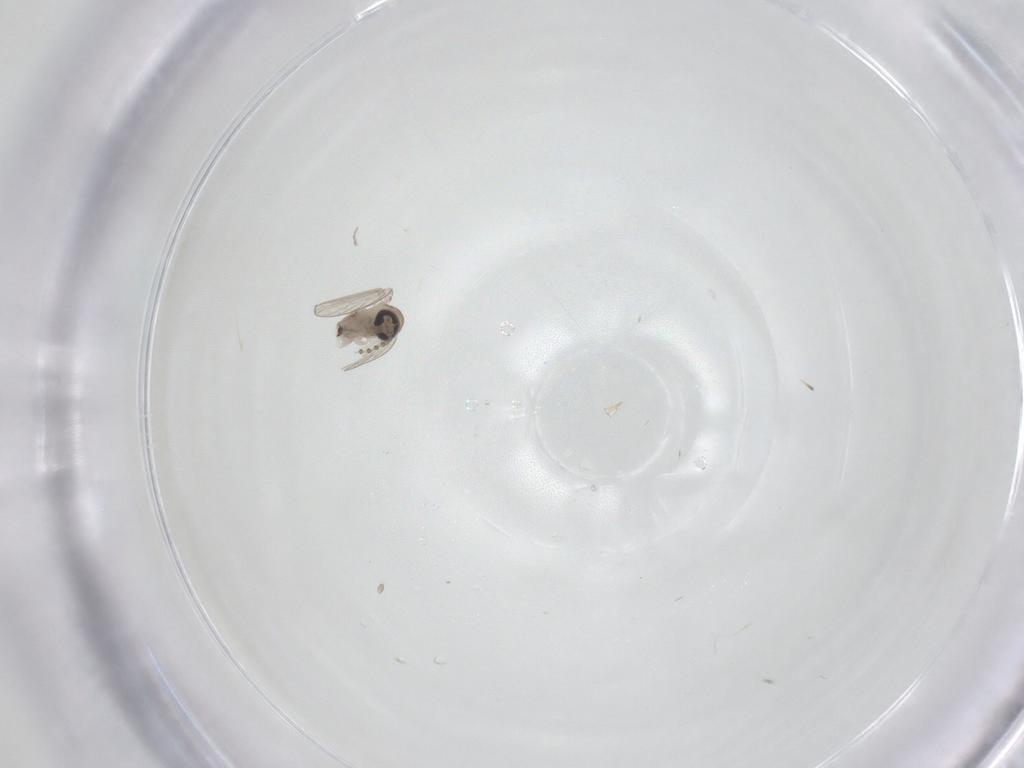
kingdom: Animalia
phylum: Arthropoda
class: Insecta
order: Diptera
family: Psychodidae
